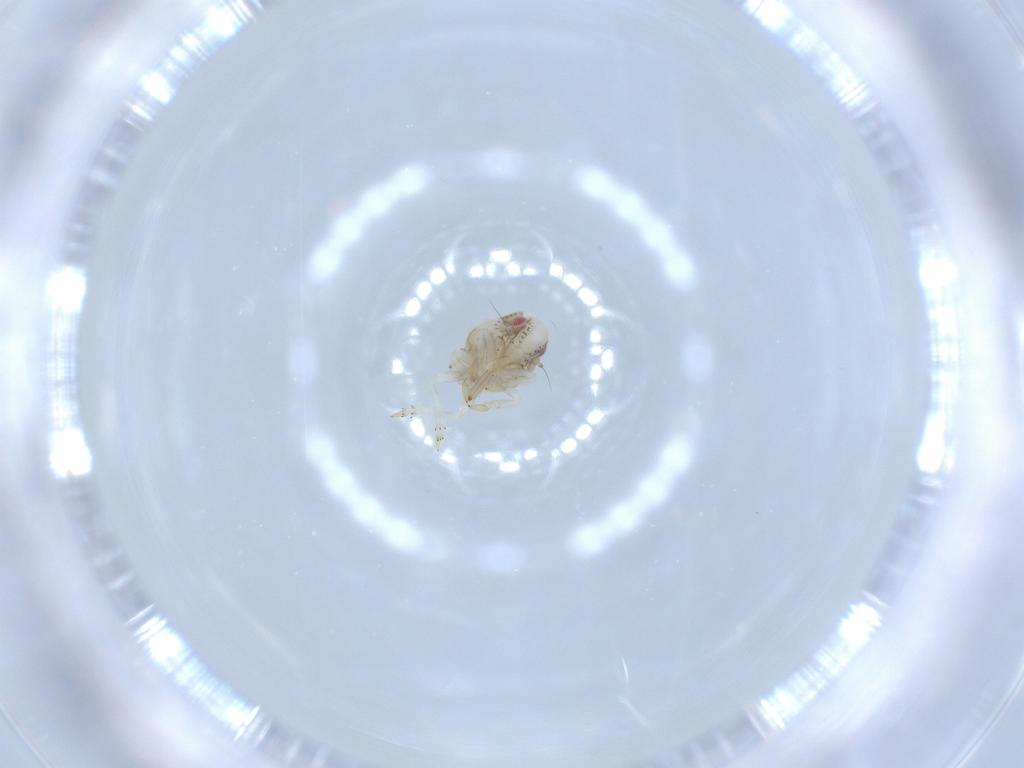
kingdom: Animalia
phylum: Arthropoda
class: Insecta
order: Hemiptera
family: Acanaloniidae
